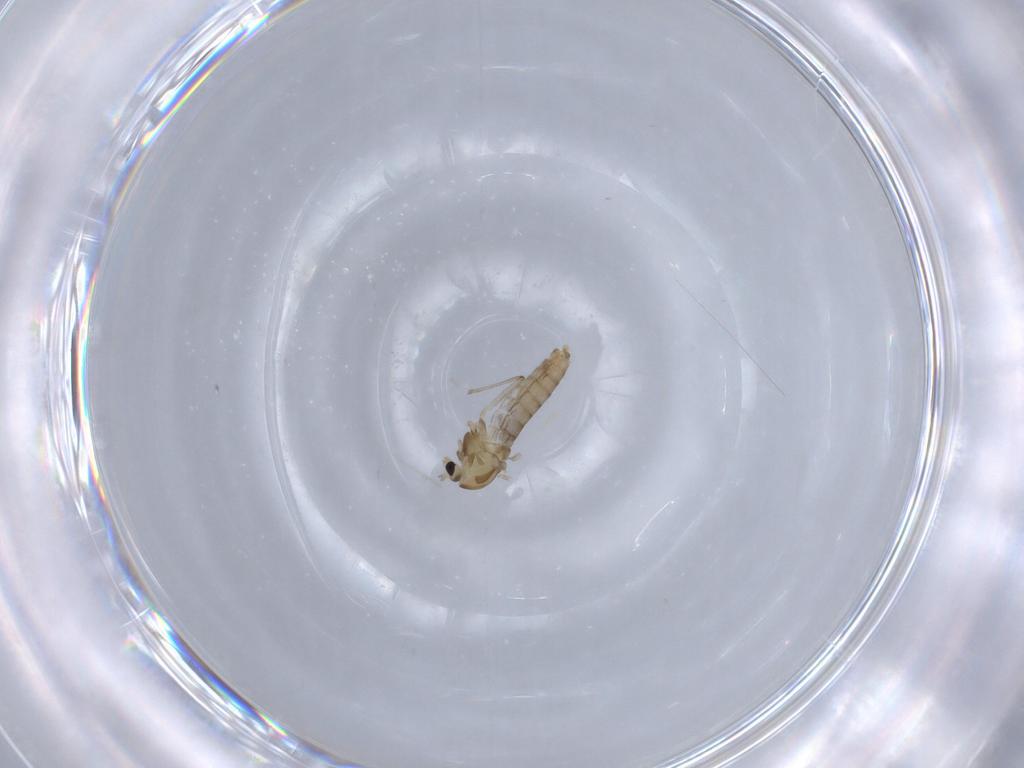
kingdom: Animalia
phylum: Arthropoda
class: Insecta
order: Diptera
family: Chironomidae
